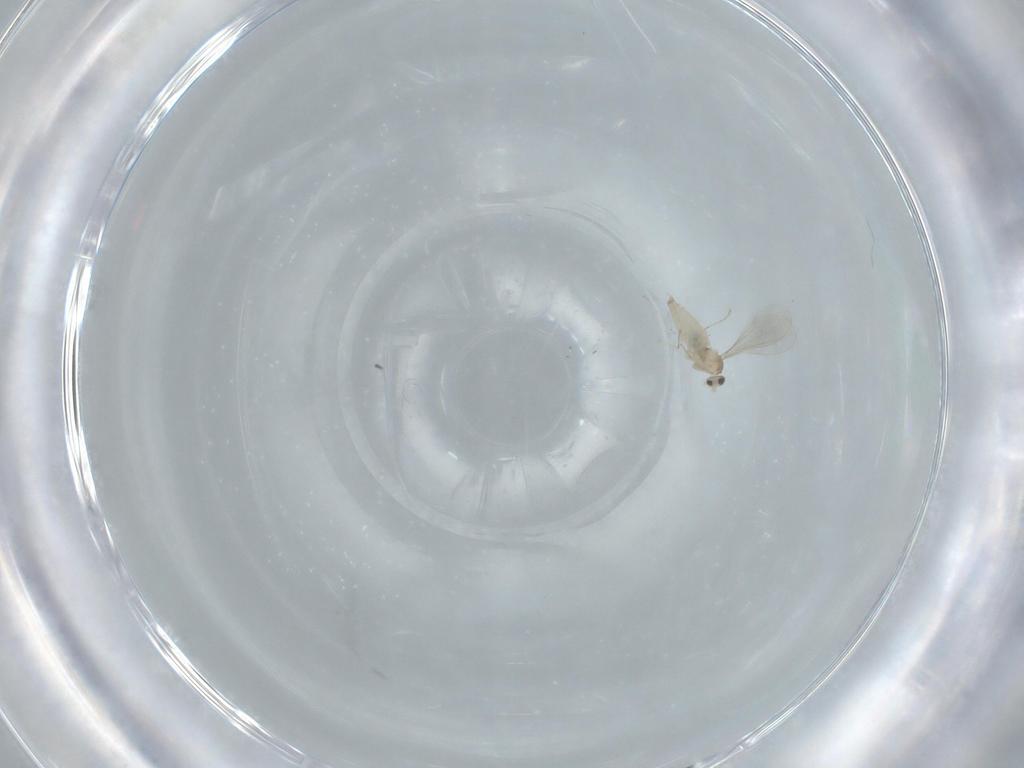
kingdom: Animalia
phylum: Arthropoda
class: Insecta
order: Diptera
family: Cecidomyiidae
